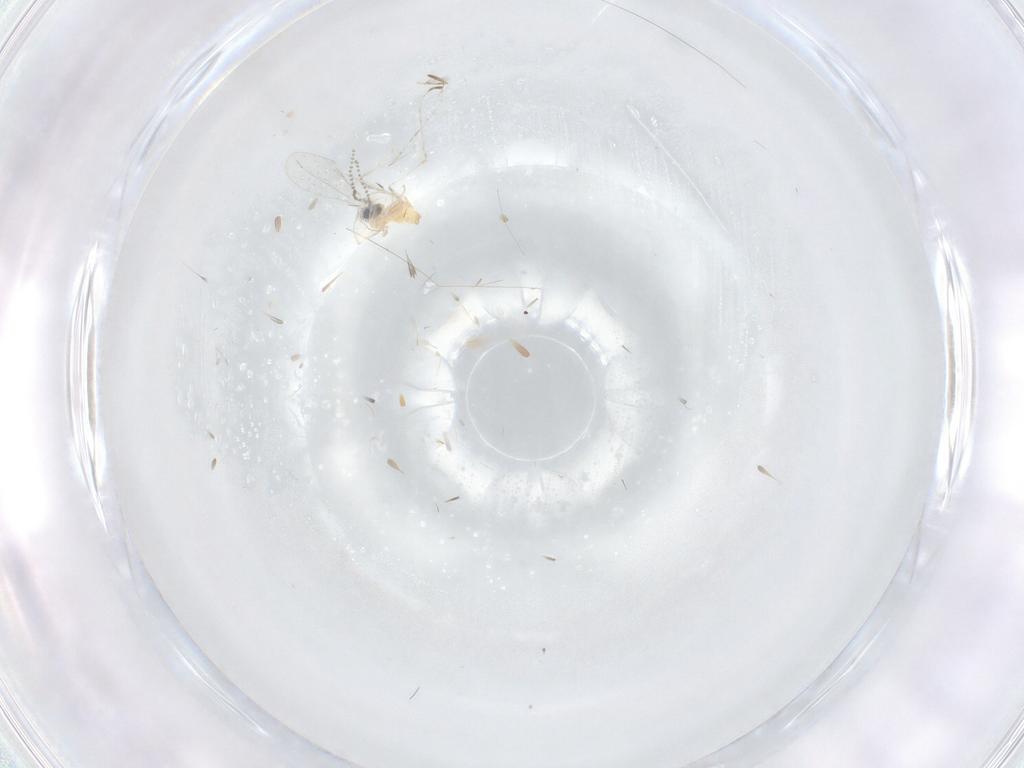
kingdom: Animalia
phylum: Arthropoda
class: Insecta
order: Diptera
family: Cecidomyiidae
